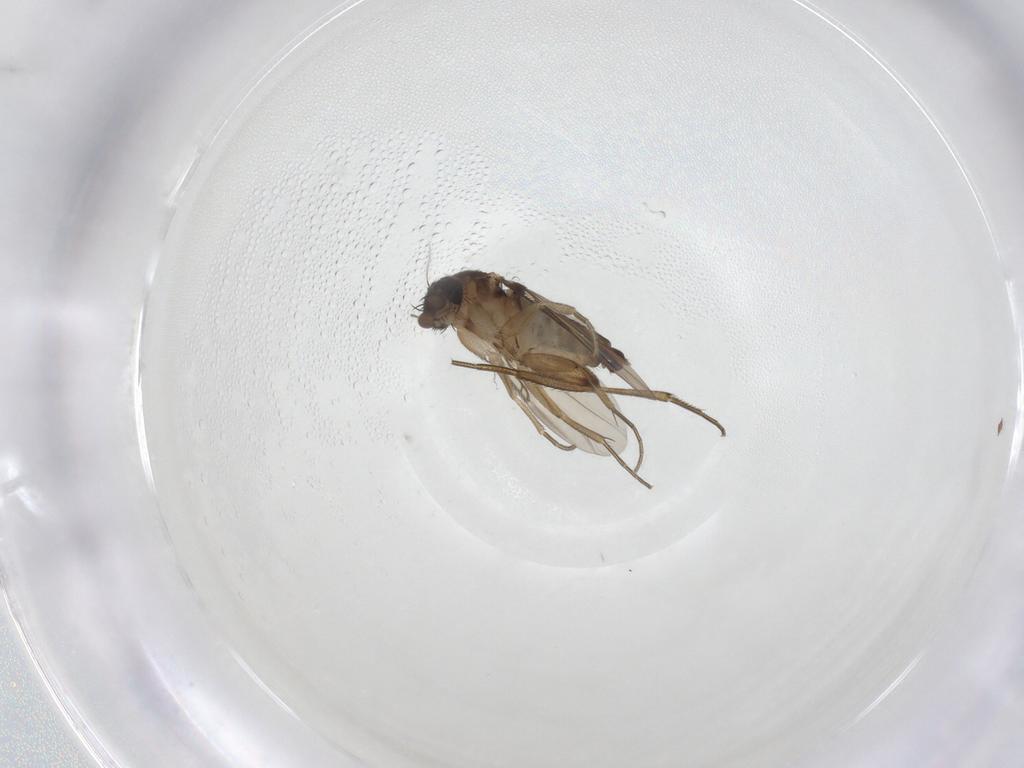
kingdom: Animalia
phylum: Arthropoda
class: Insecta
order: Diptera
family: Phoridae
